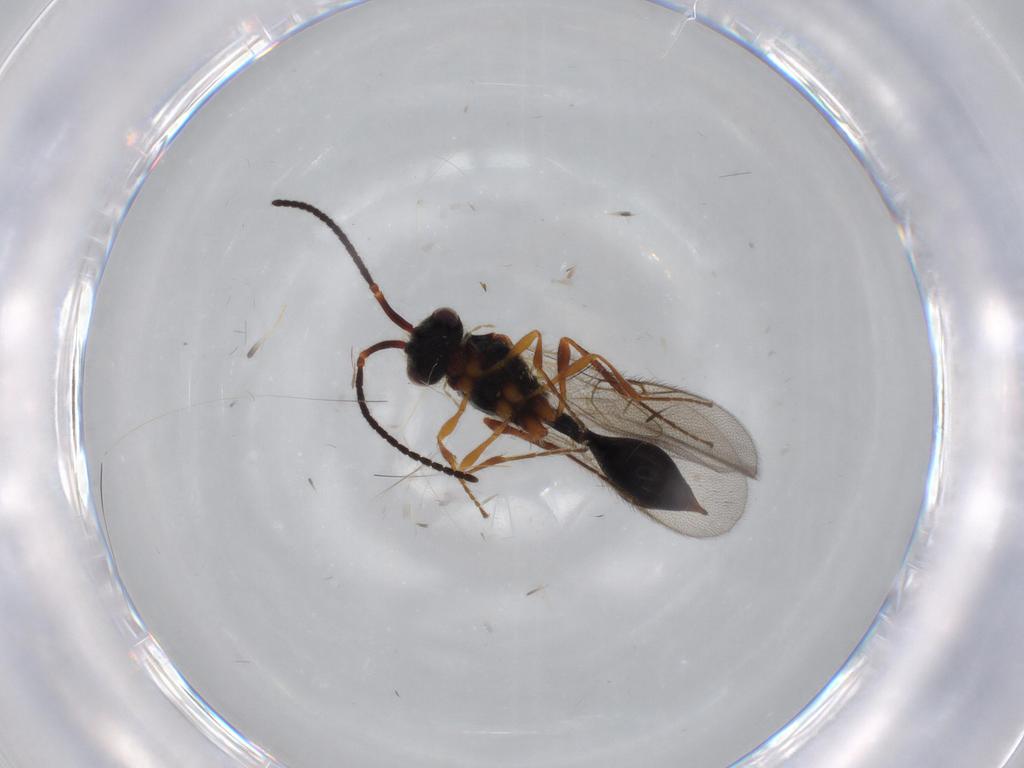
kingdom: Animalia
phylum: Arthropoda
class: Insecta
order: Hymenoptera
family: Diapriidae
